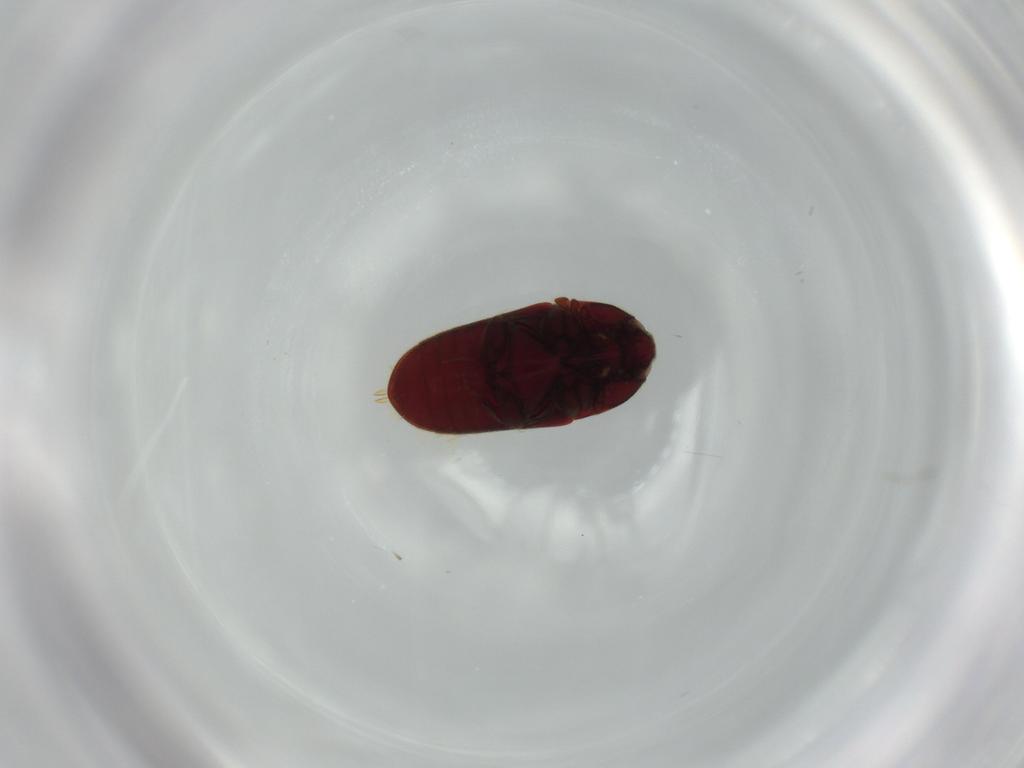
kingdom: Animalia
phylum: Arthropoda
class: Insecta
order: Coleoptera
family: Throscidae
